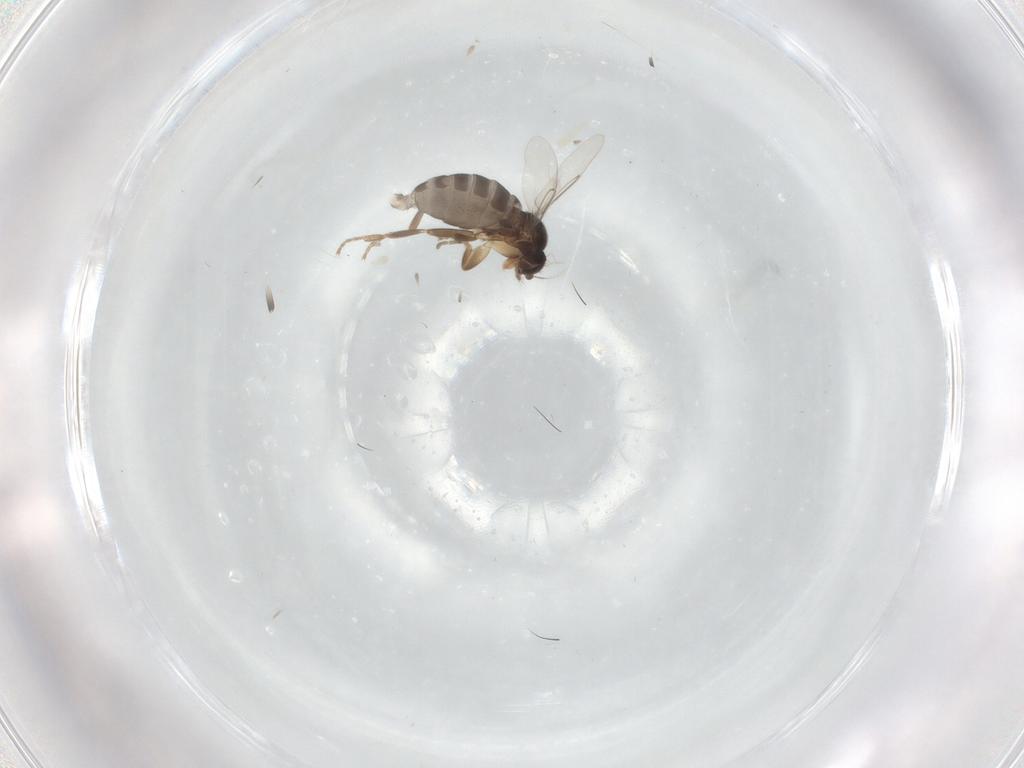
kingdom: Animalia
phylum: Arthropoda
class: Insecta
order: Diptera
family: Phoridae
